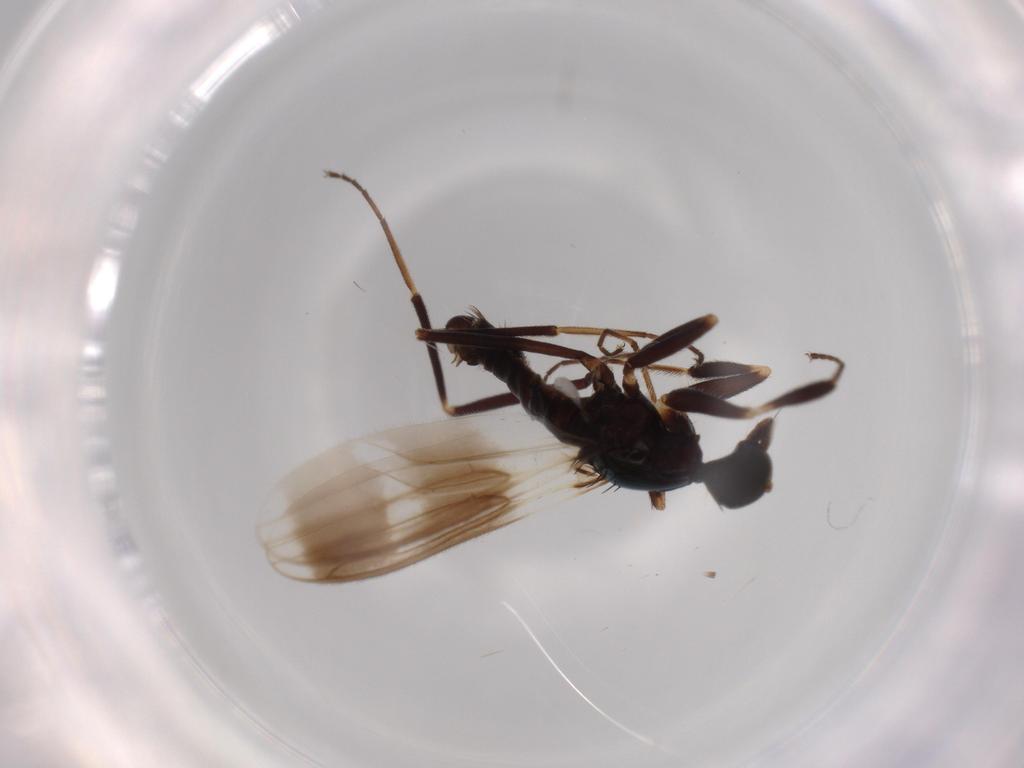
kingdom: Animalia
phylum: Arthropoda
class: Insecta
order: Diptera
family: Hybotidae
